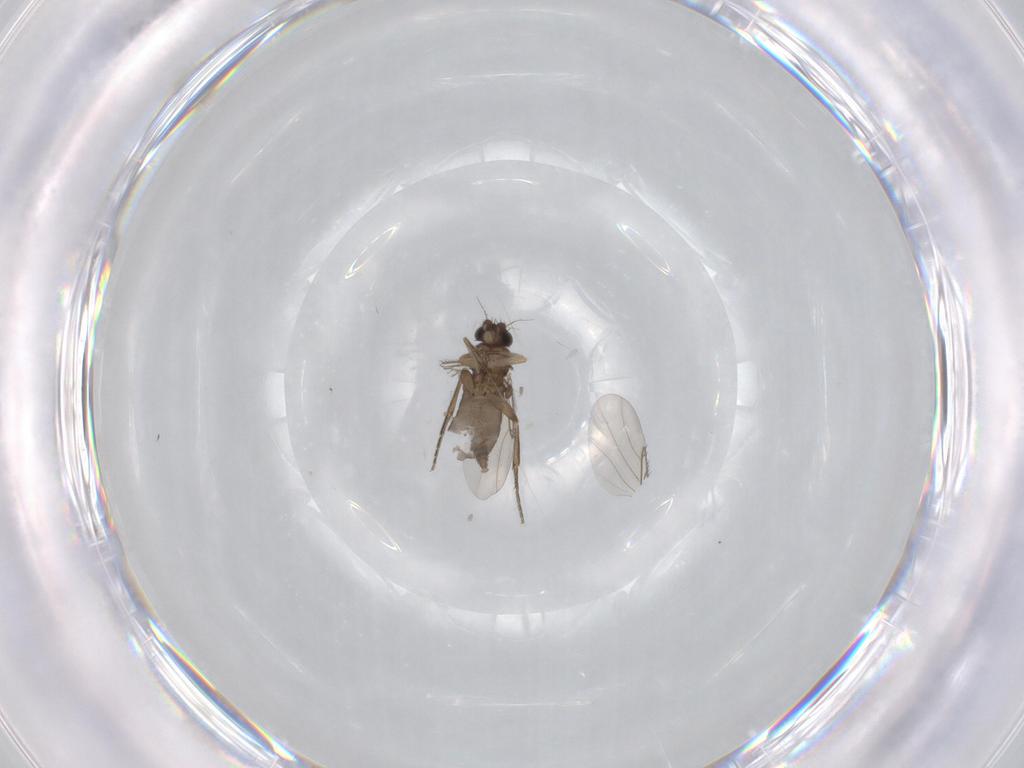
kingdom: Animalia
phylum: Arthropoda
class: Insecta
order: Diptera
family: Phoridae
